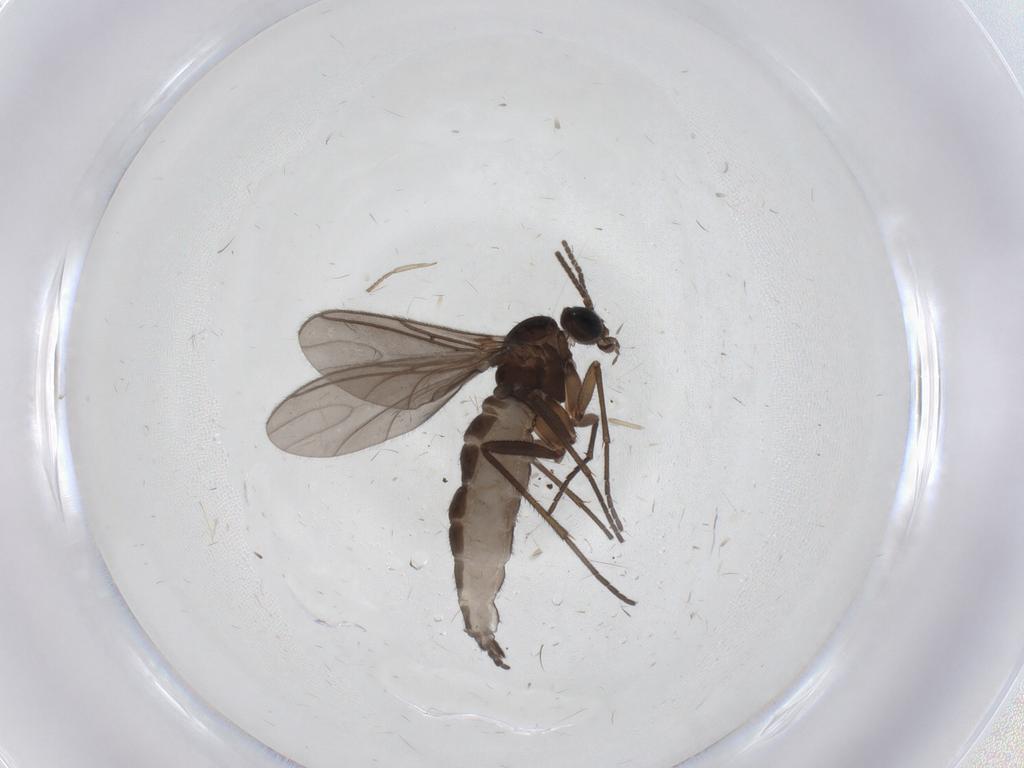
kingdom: Animalia
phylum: Arthropoda
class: Insecta
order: Diptera
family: Sciaridae
